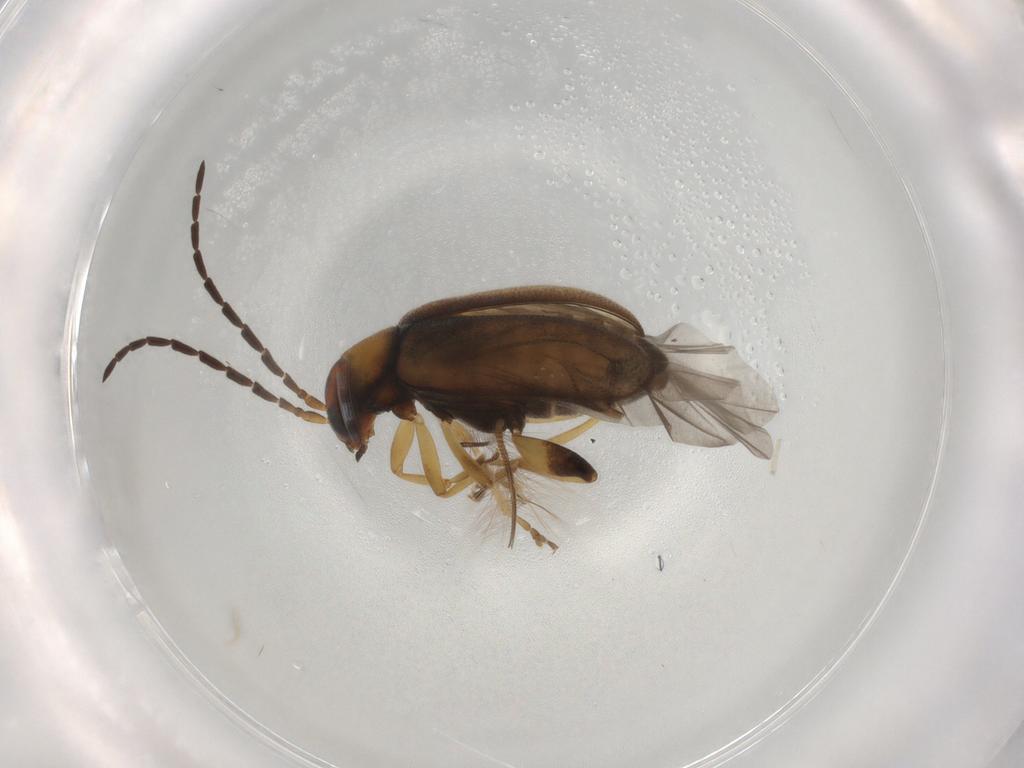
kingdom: Animalia
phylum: Arthropoda
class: Insecta
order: Coleoptera
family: Chrysomelidae
